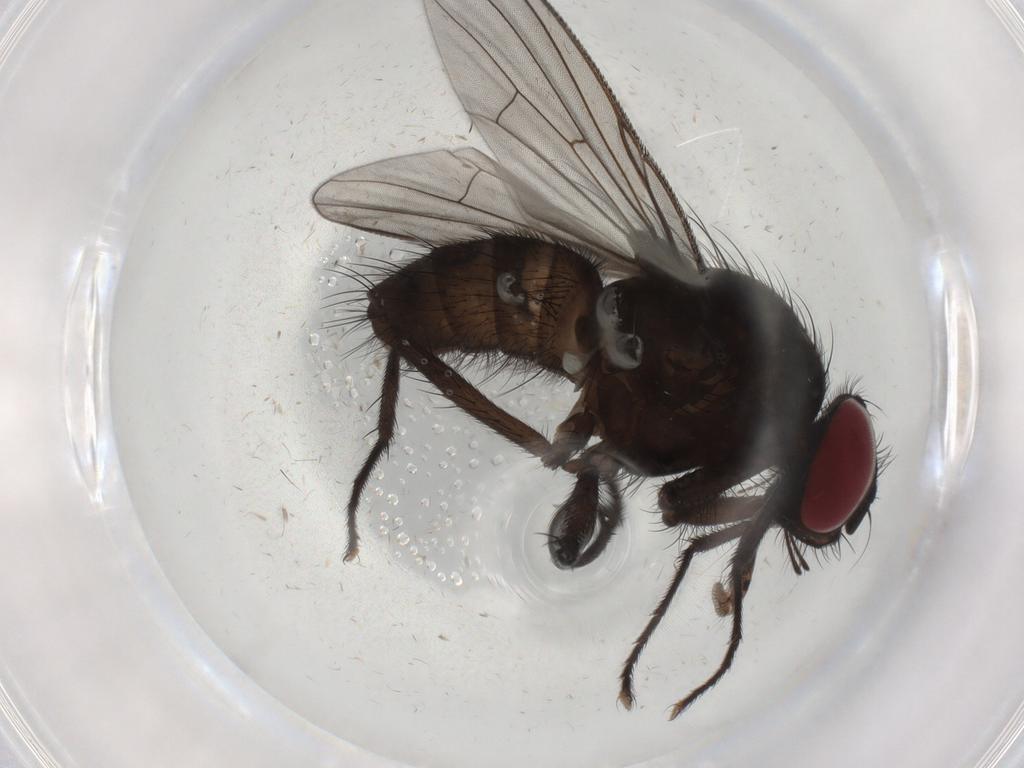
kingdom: Animalia
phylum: Arthropoda
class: Insecta
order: Diptera
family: Muscidae
